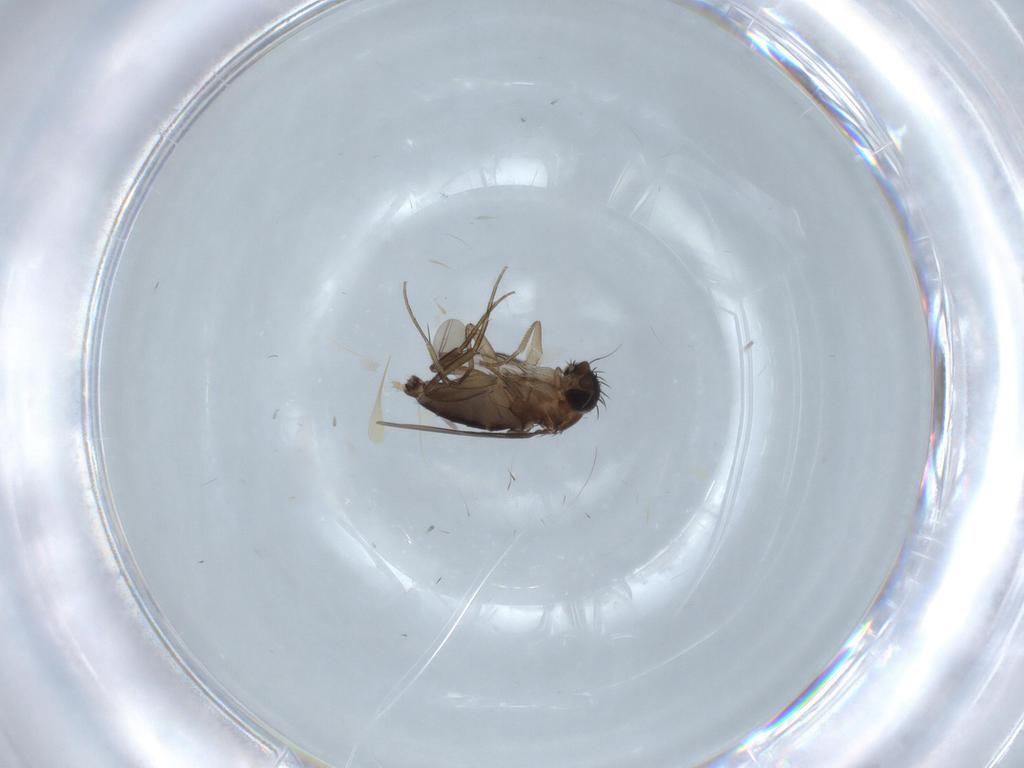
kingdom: Animalia
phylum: Arthropoda
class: Insecta
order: Diptera
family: Phoridae
